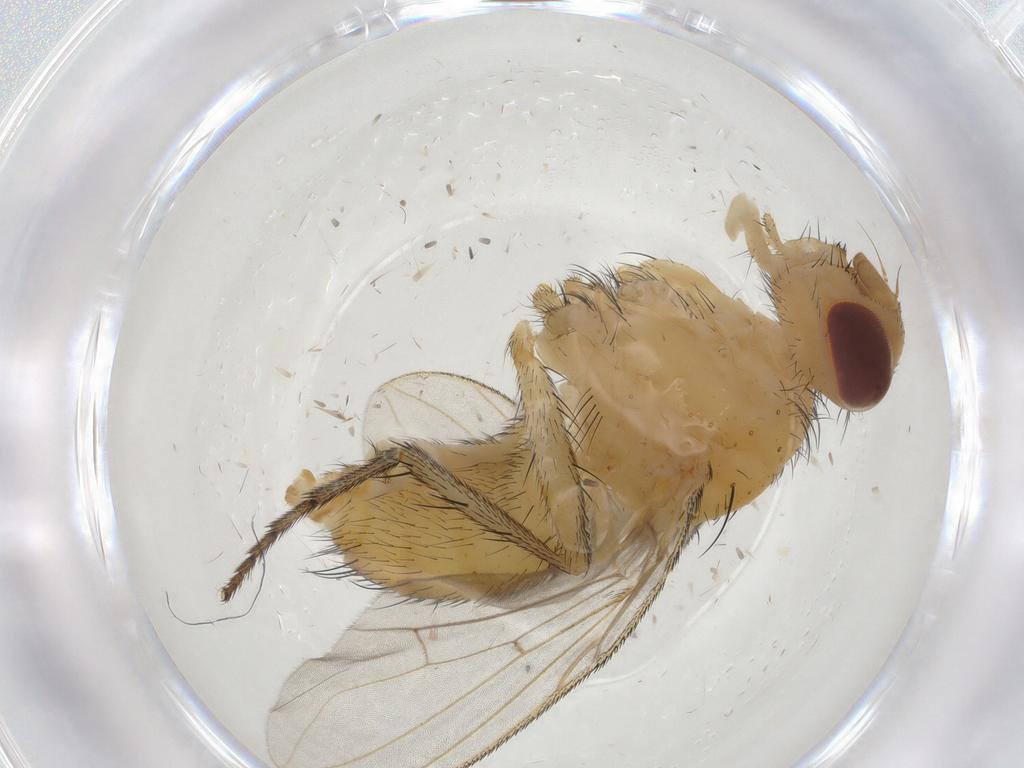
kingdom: Animalia
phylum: Arthropoda
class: Insecta
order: Diptera
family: Tachinidae
